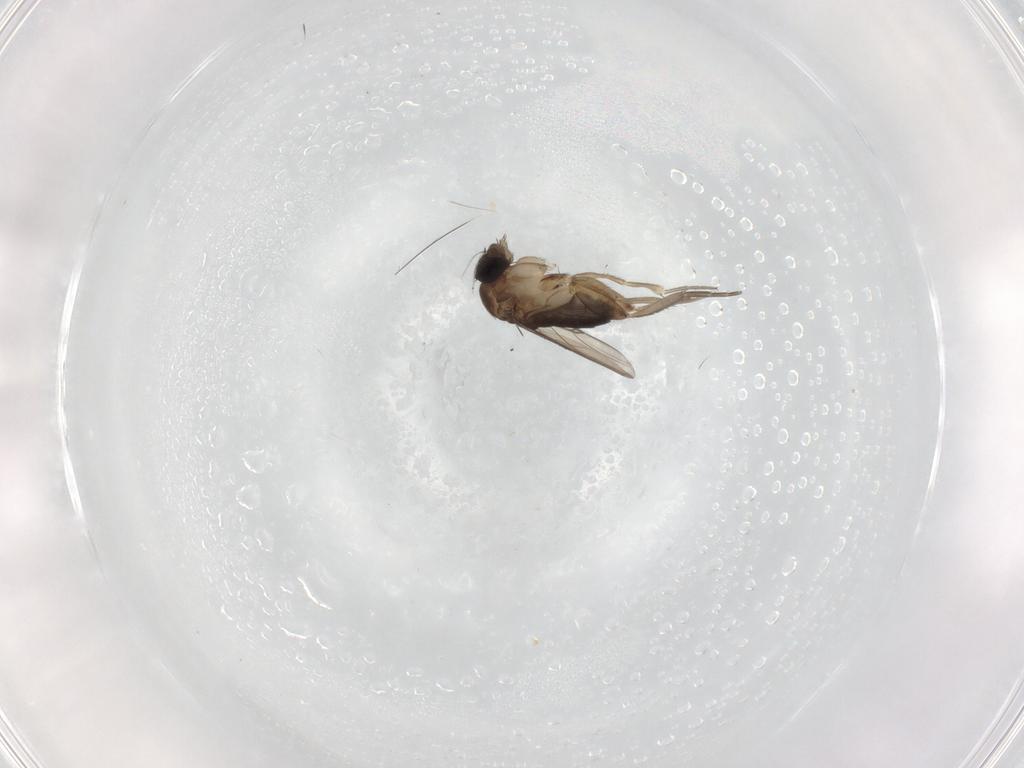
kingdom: Animalia
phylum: Arthropoda
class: Insecta
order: Diptera
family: Phoridae
